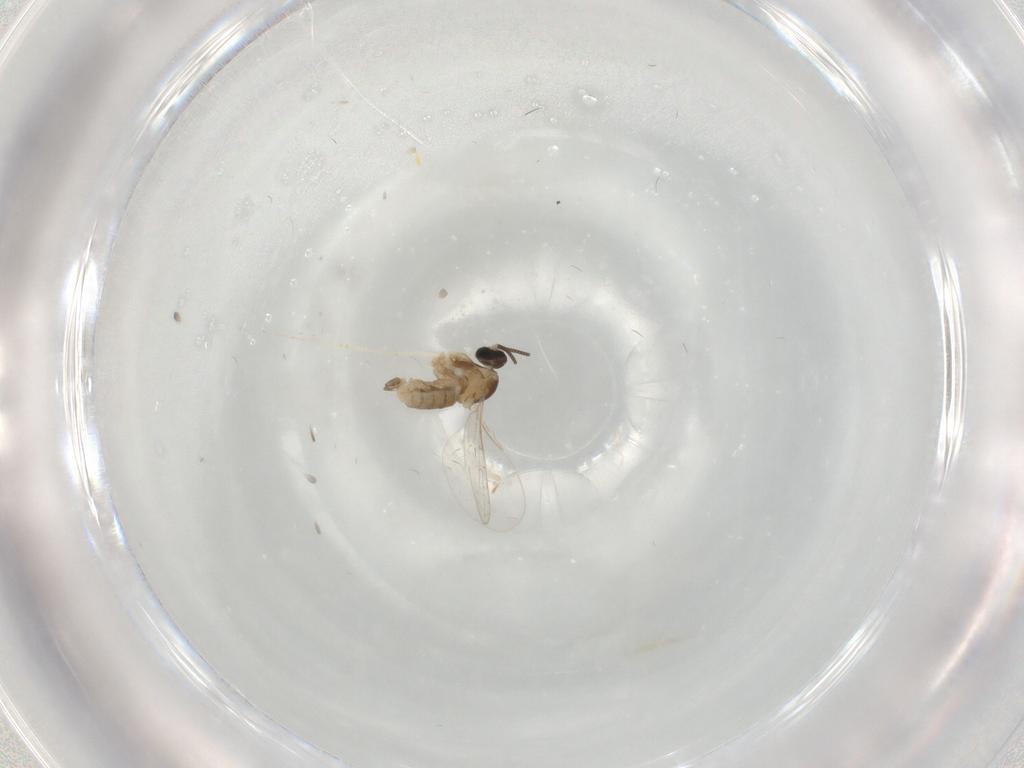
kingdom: Animalia
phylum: Arthropoda
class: Insecta
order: Diptera
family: Cecidomyiidae
